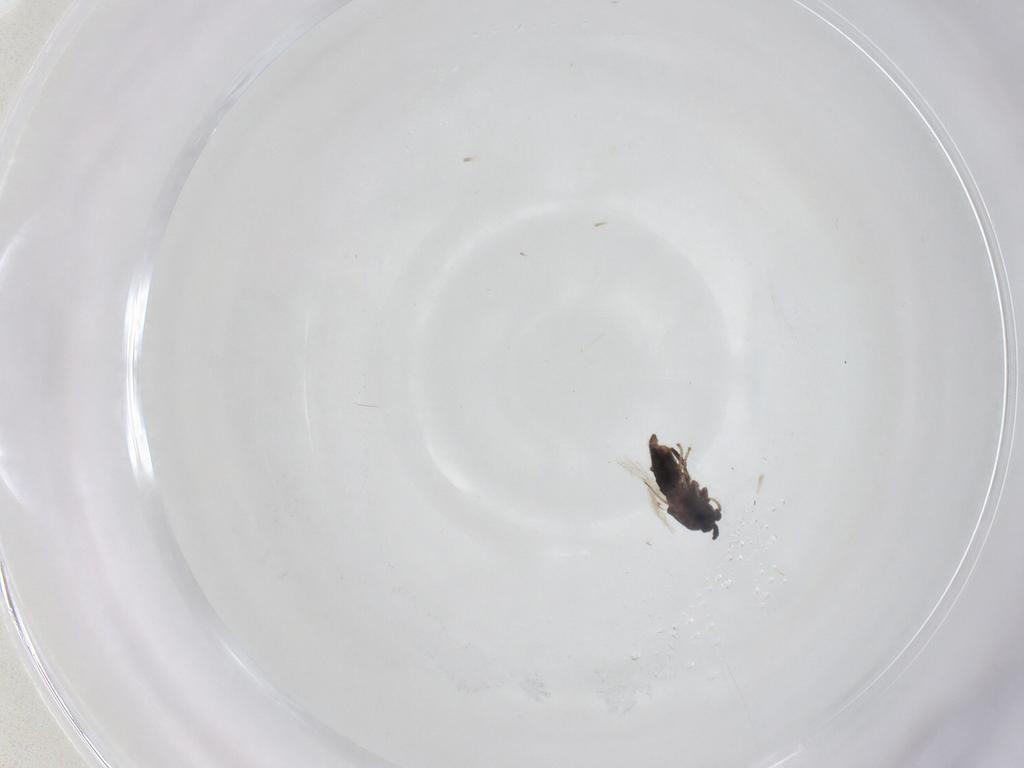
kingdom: Animalia
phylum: Arthropoda
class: Insecta
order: Diptera
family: Scatopsidae
